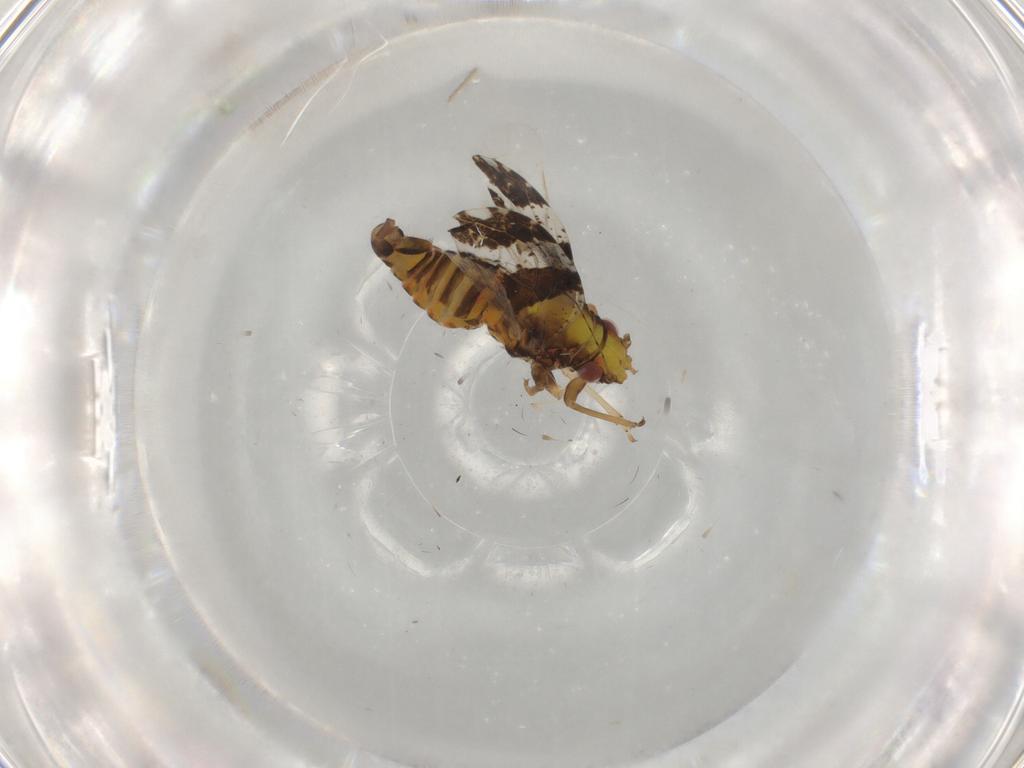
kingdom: Animalia
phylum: Arthropoda
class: Insecta
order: Hemiptera
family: Psyllidae
